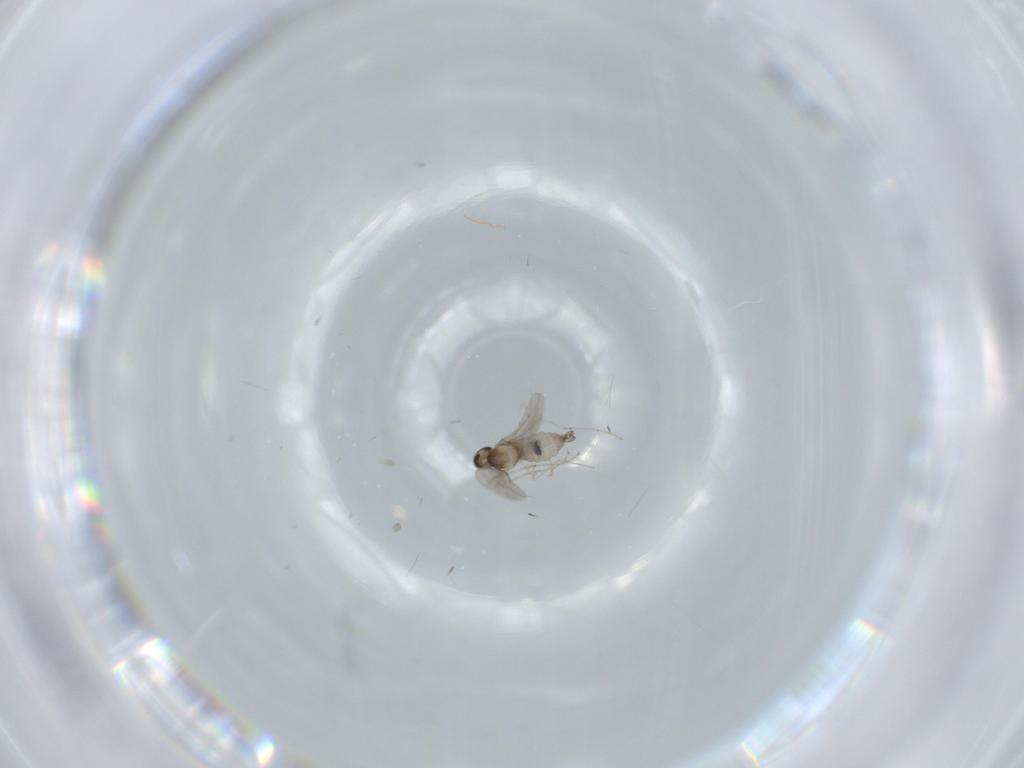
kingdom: Animalia
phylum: Arthropoda
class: Insecta
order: Diptera
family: Cecidomyiidae
